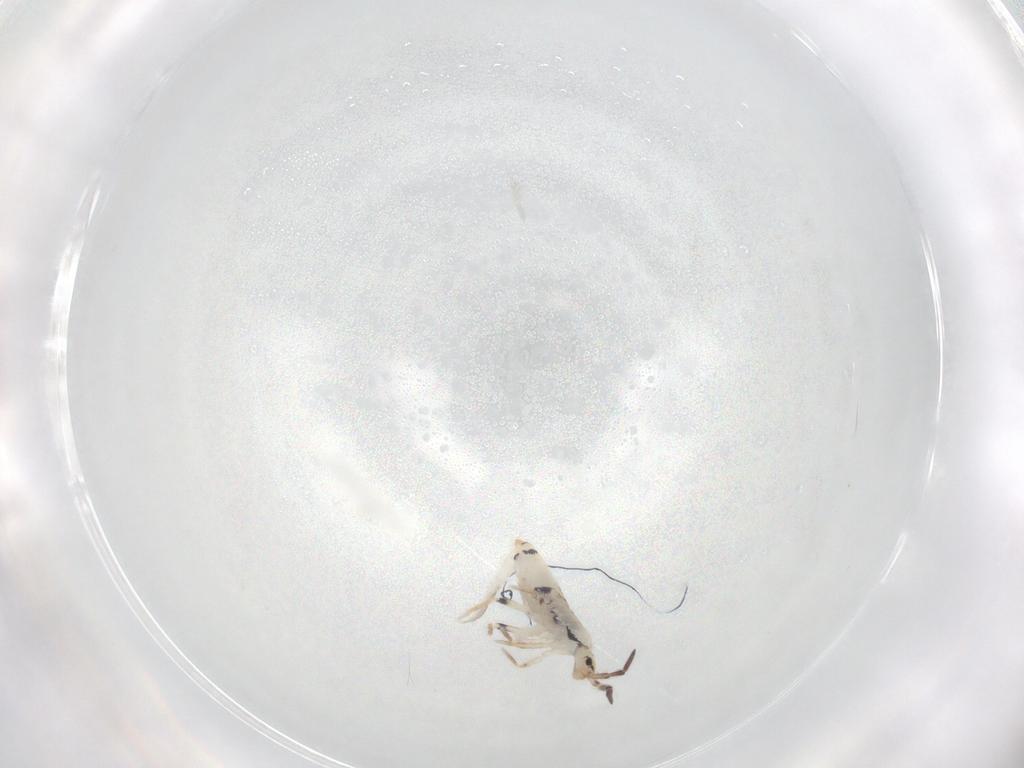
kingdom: Animalia
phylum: Arthropoda
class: Collembola
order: Entomobryomorpha
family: Entomobryidae
